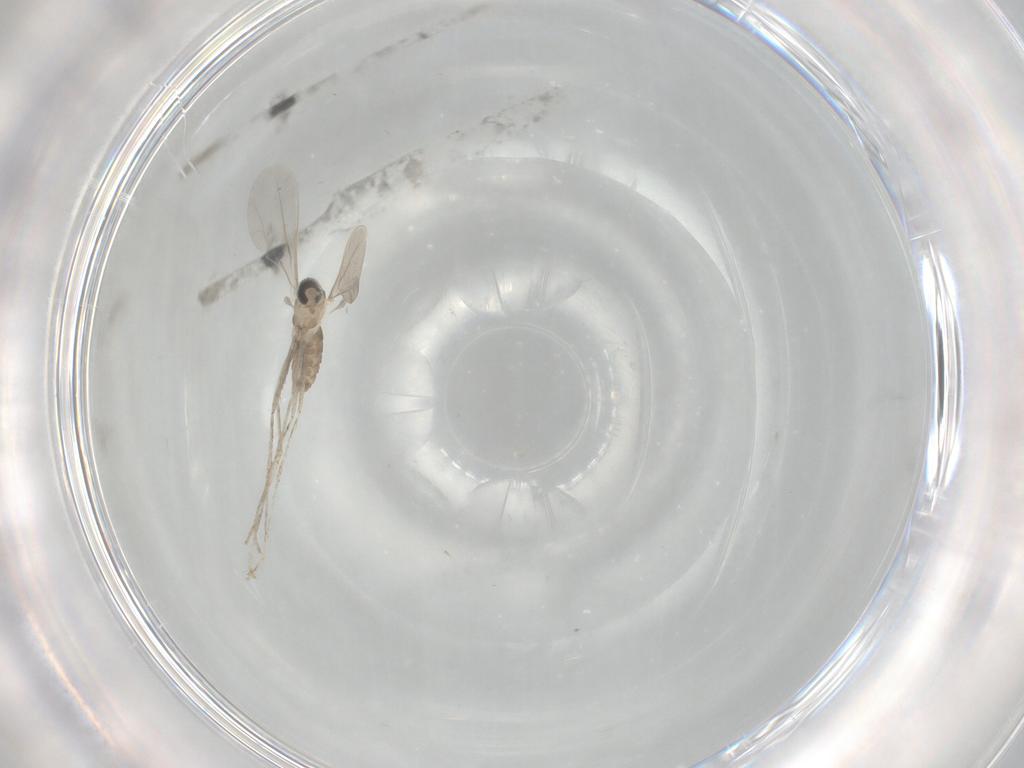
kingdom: Animalia
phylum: Arthropoda
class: Insecta
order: Diptera
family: Cecidomyiidae
